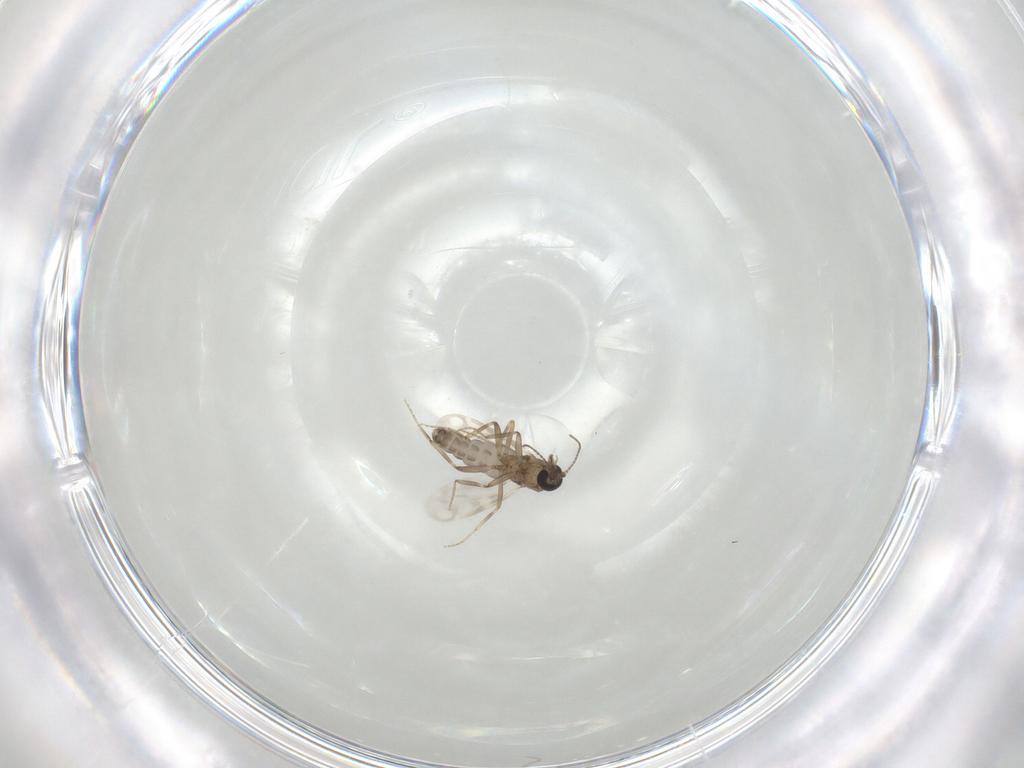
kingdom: Animalia
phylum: Arthropoda
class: Insecta
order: Diptera
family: Ceratopogonidae
